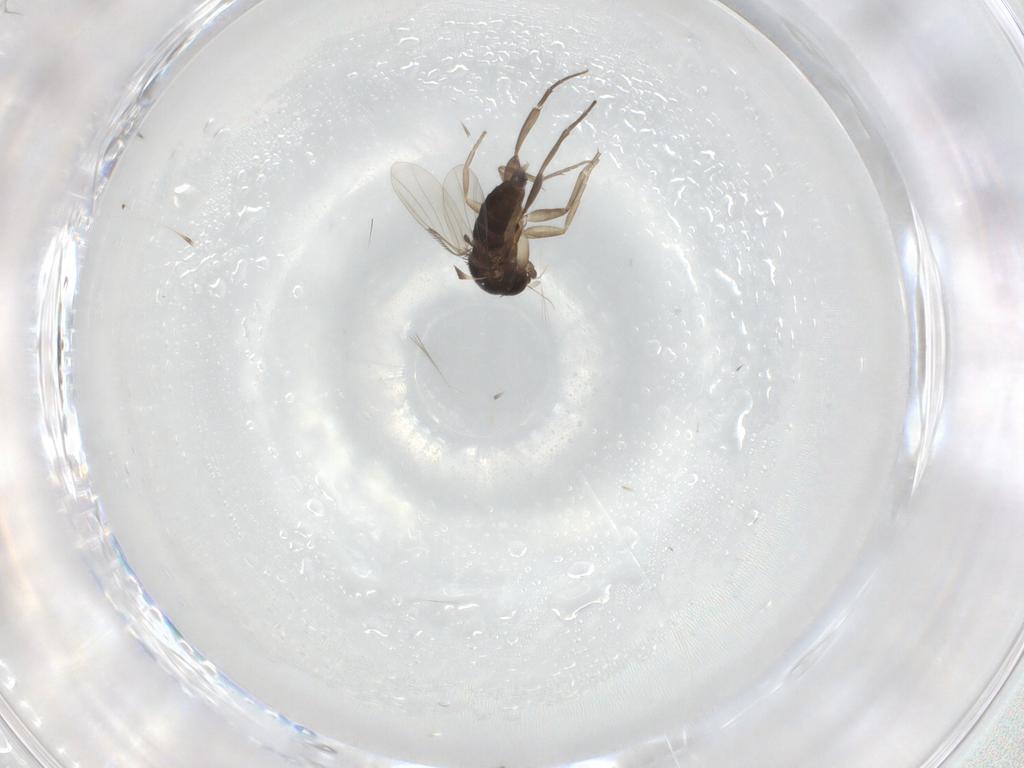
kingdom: Animalia
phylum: Arthropoda
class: Insecta
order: Diptera
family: Phoridae
